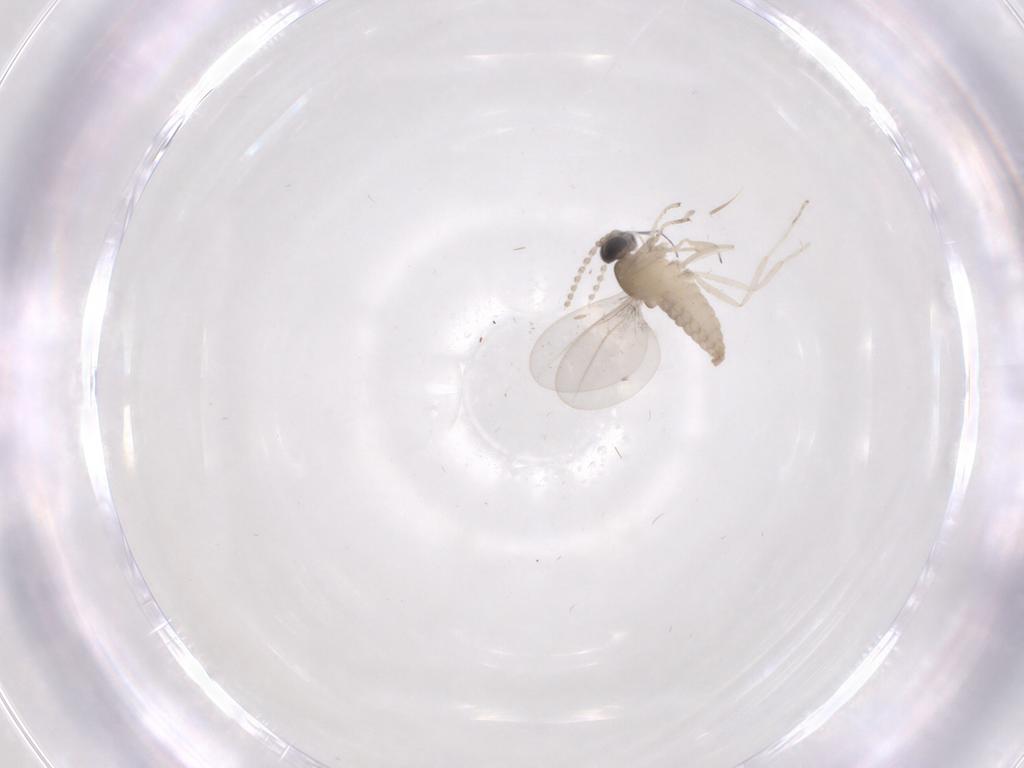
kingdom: Animalia
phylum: Arthropoda
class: Insecta
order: Diptera
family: Cecidomyiidae
